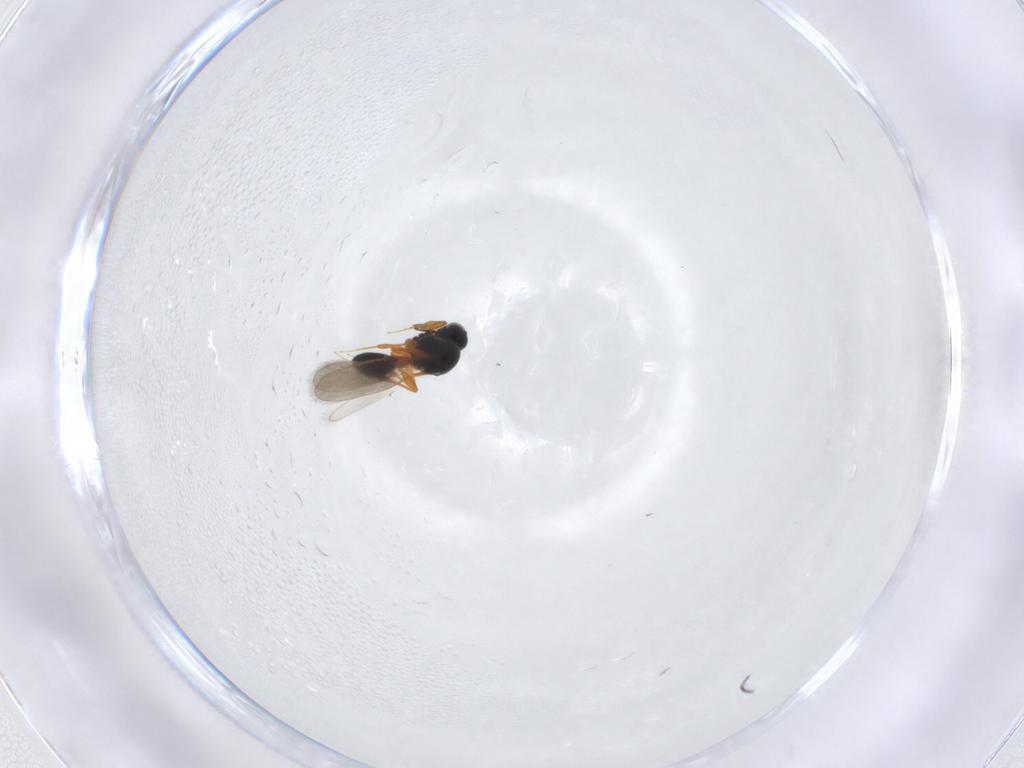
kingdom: Animalia
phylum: Arthropoda
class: Insecta
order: Hymenoptera
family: Platygastridae
